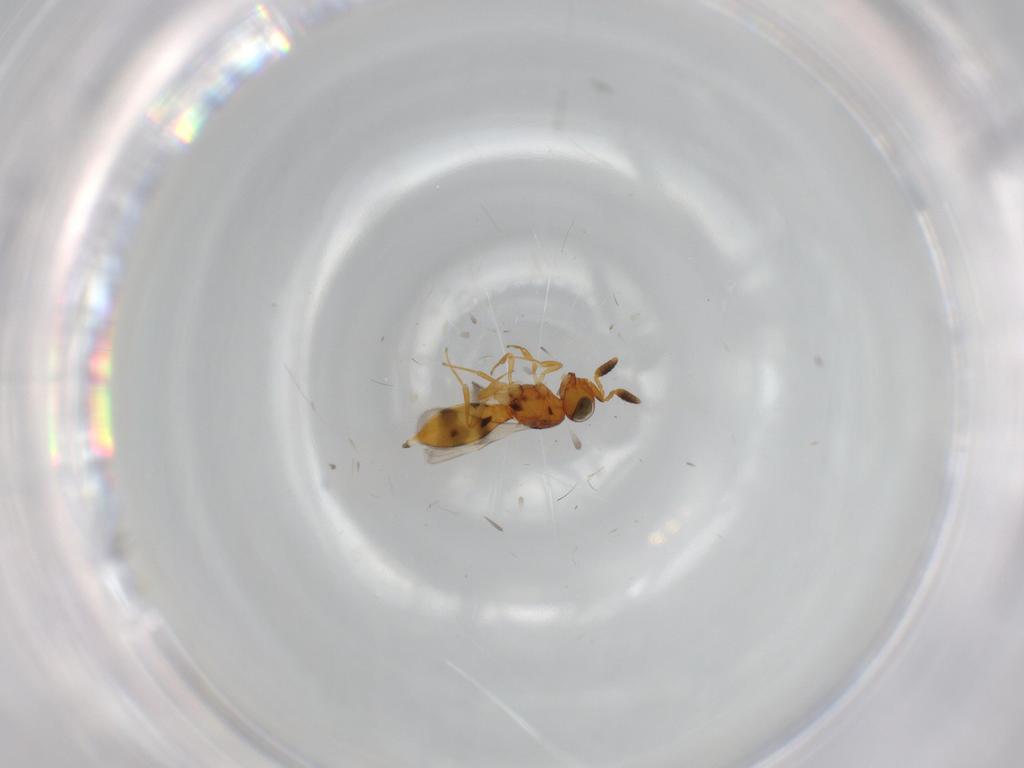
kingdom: Animalia
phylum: Arthropoda
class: Insecta
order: Hymenoptera
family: Scelionidae
